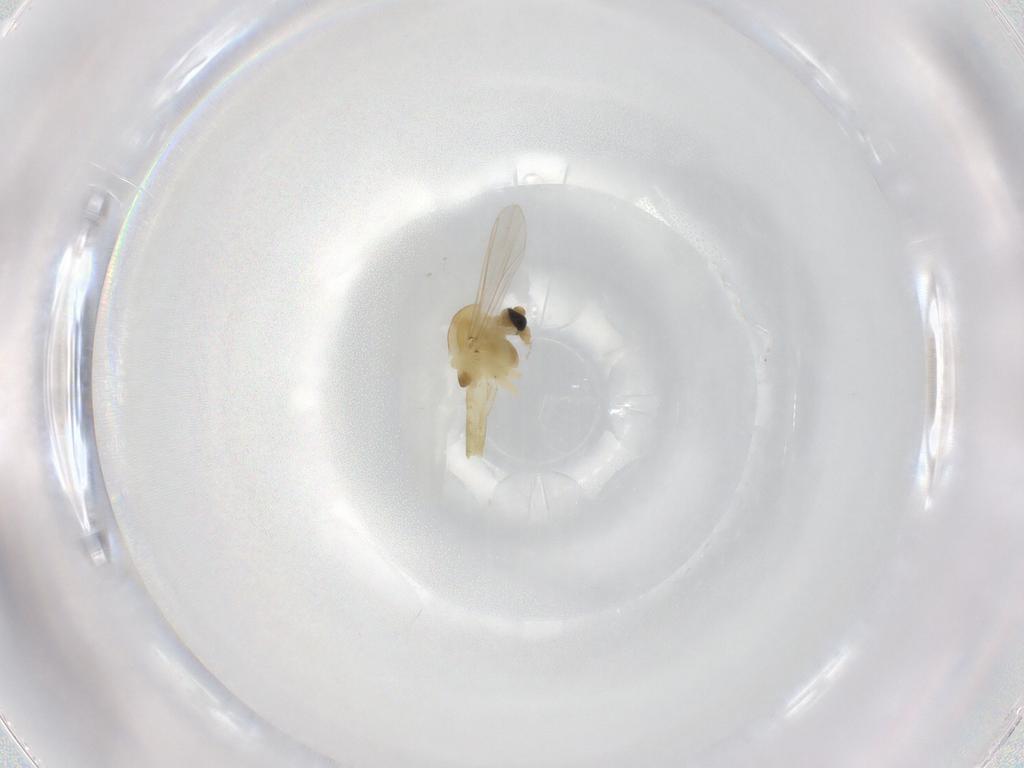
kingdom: Animalia
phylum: Arthropoda
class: Insecta
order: Diptera
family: Chironomidae
